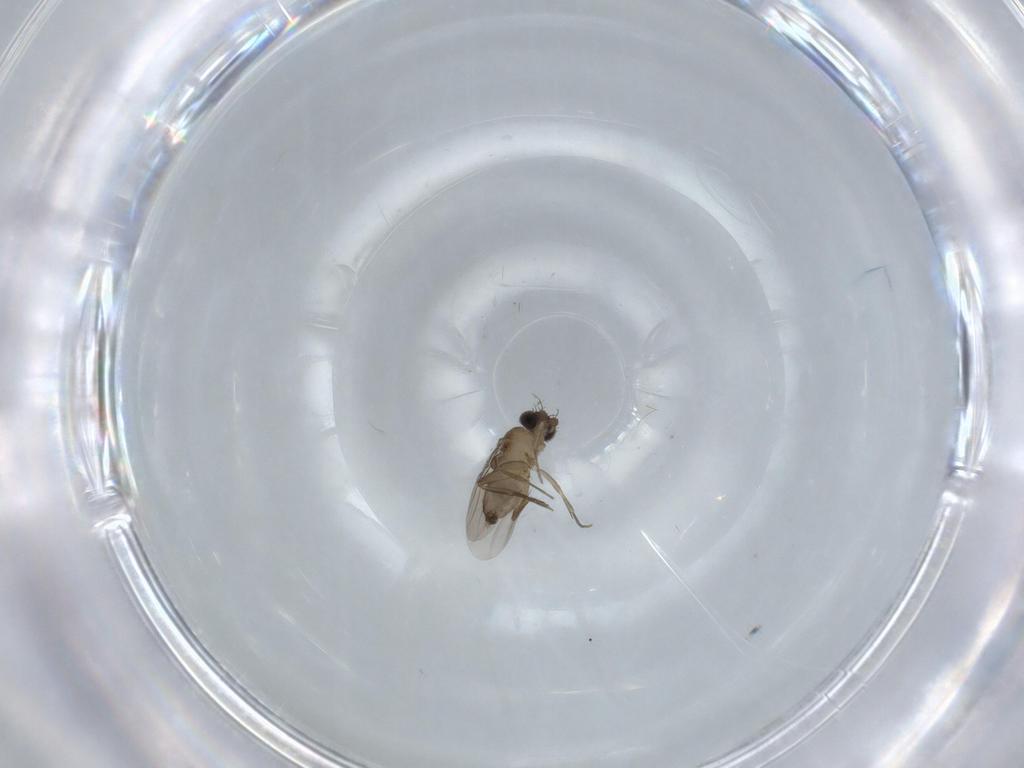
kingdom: Animalia
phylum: Arthropoda
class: Insecta
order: Diptera
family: Phoridae
